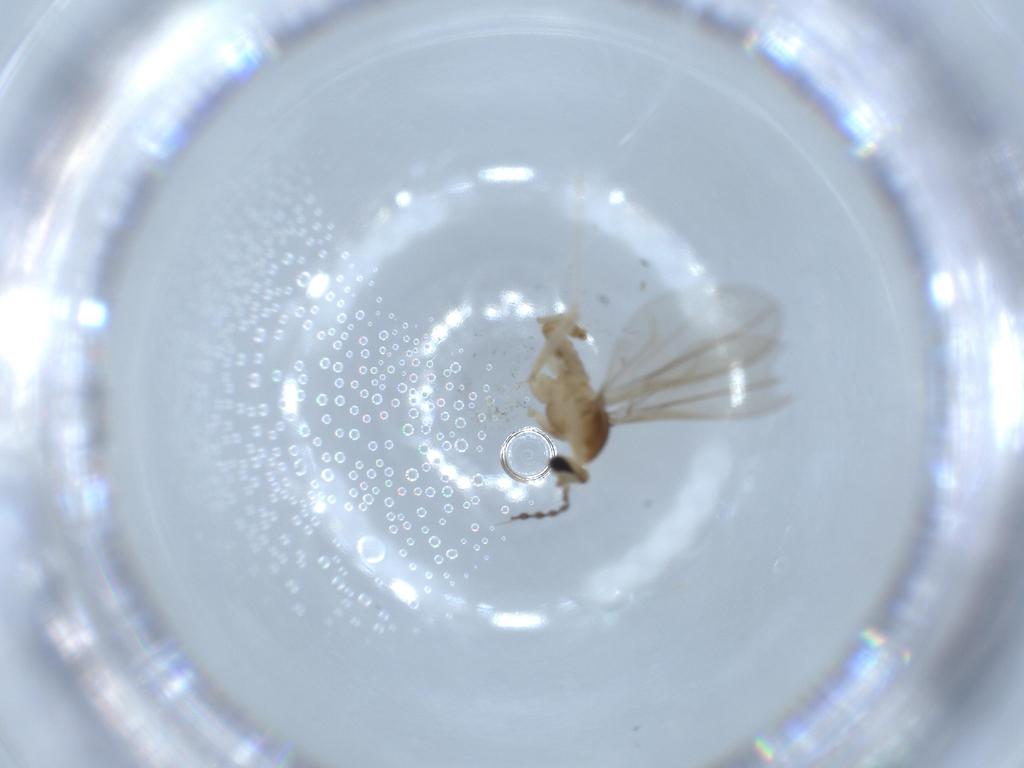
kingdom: Animalia
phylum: Arthropoda
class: Insecta
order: Diptera
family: Cecidomyiidae
